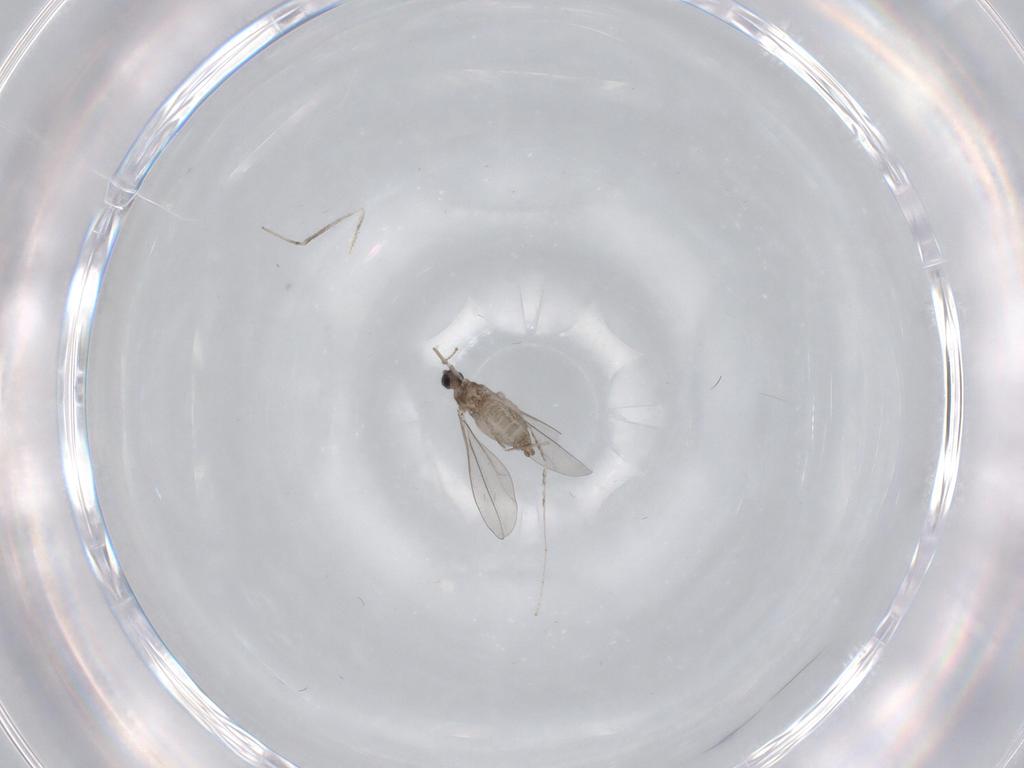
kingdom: Animalia
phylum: Arthropoda
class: Insecta
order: Diptera
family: Cecidomyiidae
